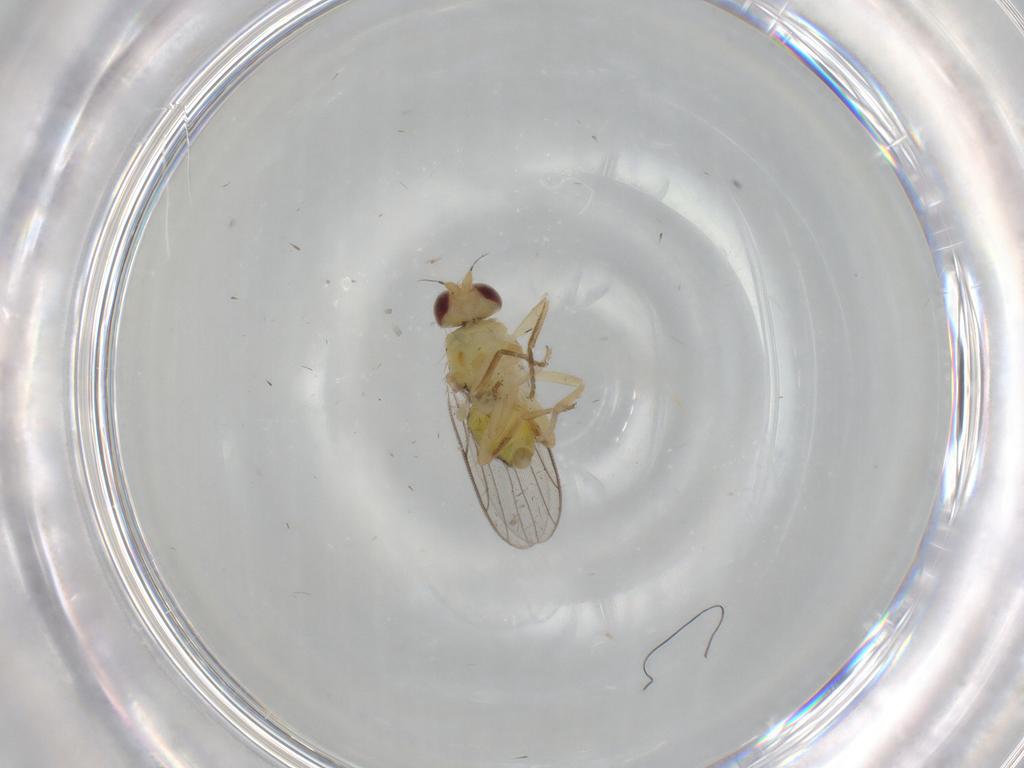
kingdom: Animalia
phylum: Arthropoda
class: Insecta
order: Diptera
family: Chloropidae
